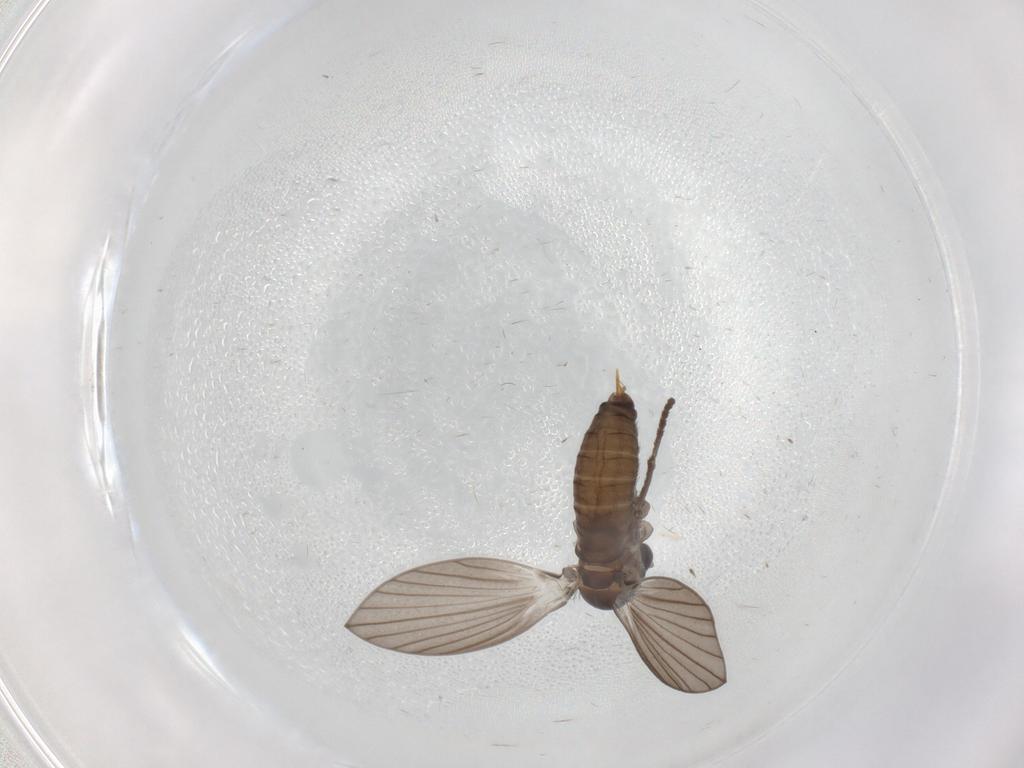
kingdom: Animalia
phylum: Arthropoda
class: Insecta
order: Diptera
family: Psychodidae
